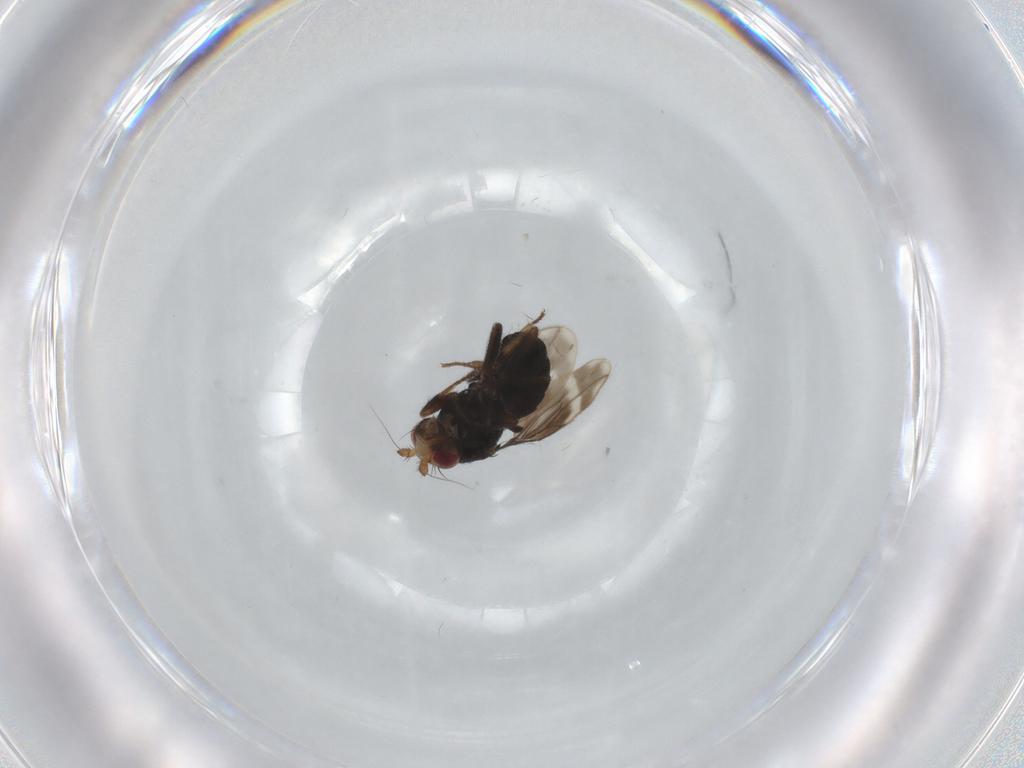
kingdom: Animalia
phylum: Arthropoda
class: Insecta
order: Diptera
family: Sphaeroceridae
